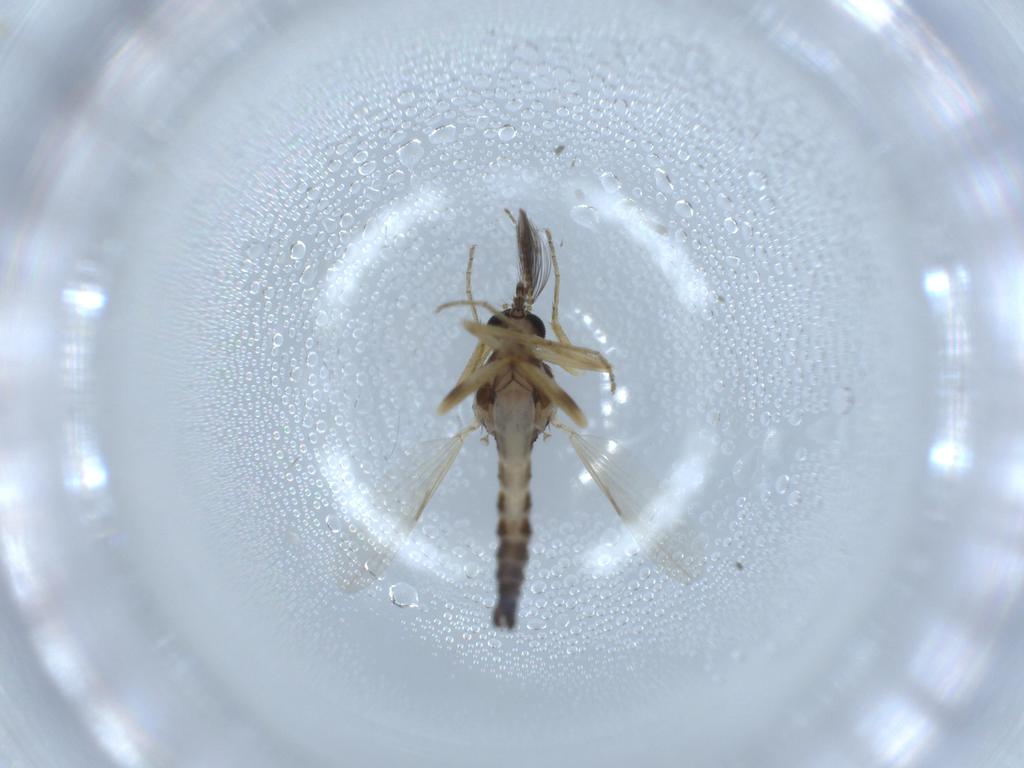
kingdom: Animalia
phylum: Arthropoda
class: Insecta
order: Diptera
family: Ceratopogonidae
